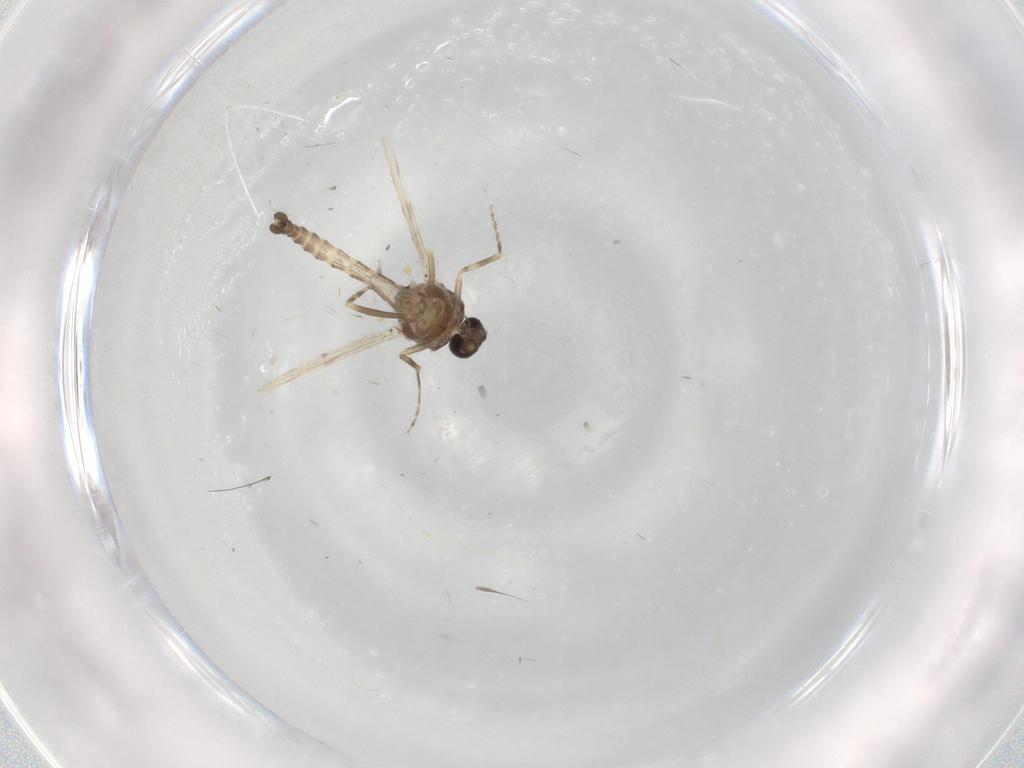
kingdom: Animalia
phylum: Arthropoda
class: Insecta
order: Diptera
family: Ceratopogonidae
